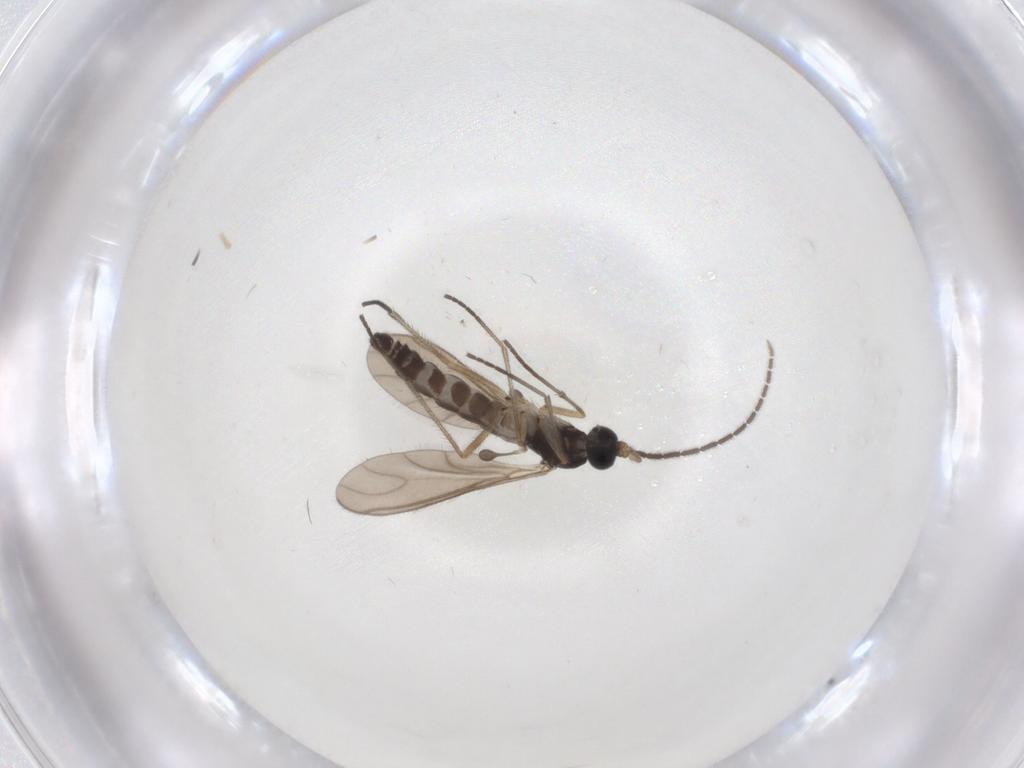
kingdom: Animalia
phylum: Arthropoda
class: Insecta
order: Diptera
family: Sciaridae
